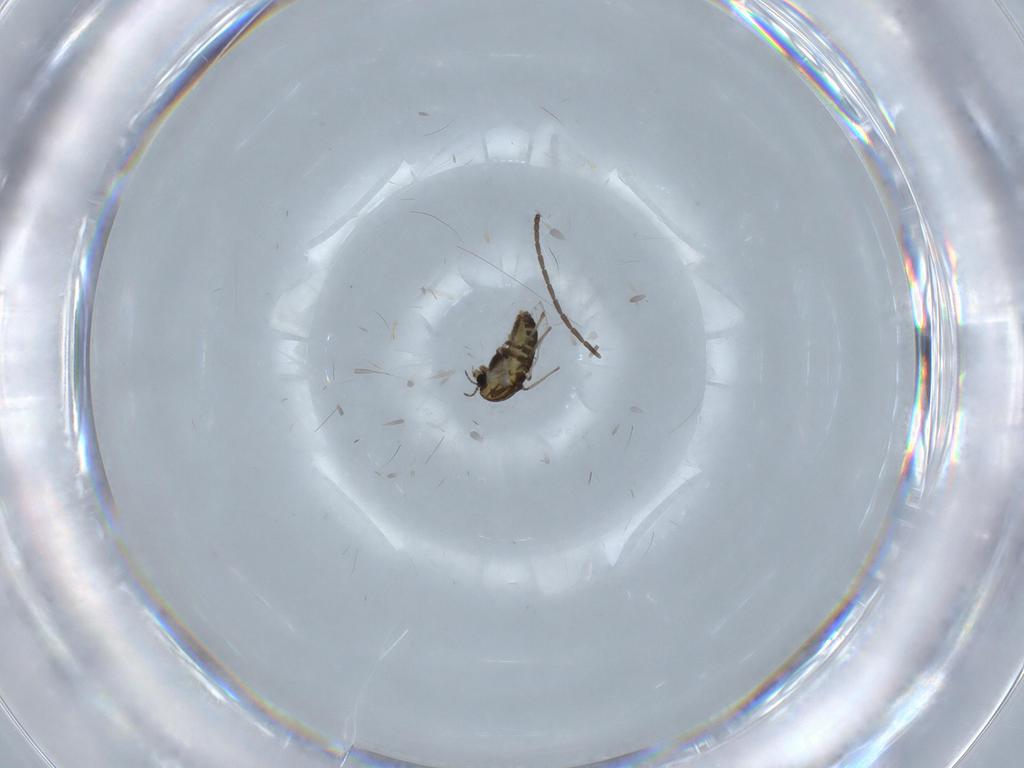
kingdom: Animalia
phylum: Arthropoda
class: Insecta
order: Diptera
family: Chironomidae
